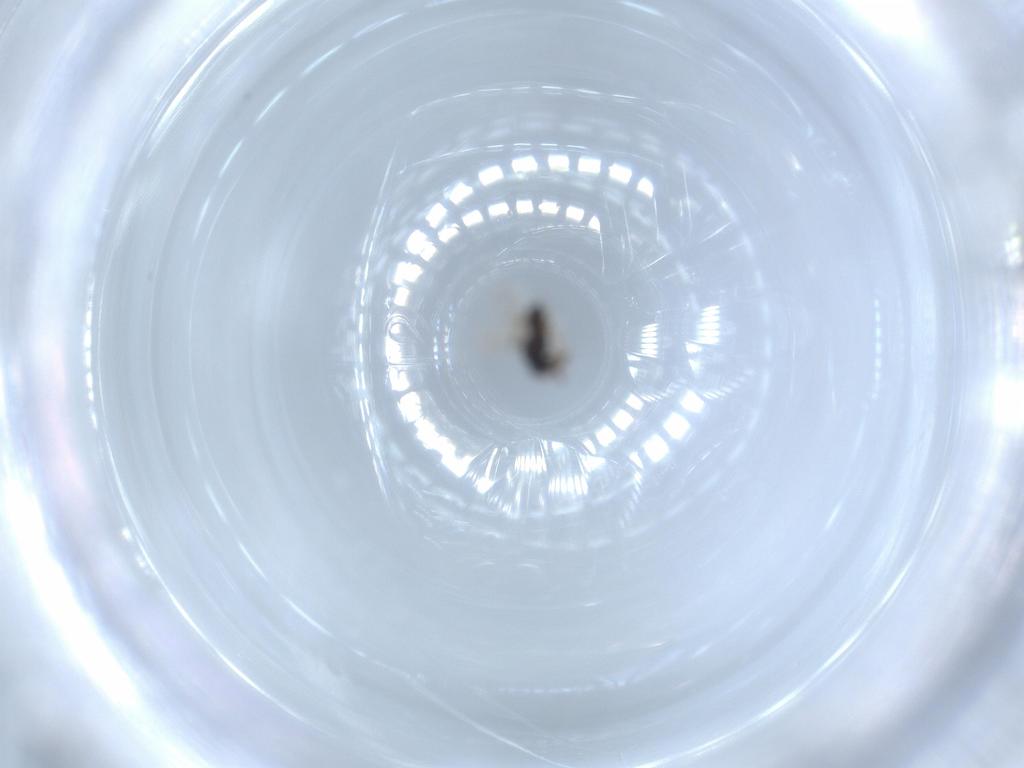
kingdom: Animalia
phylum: Arthropoda
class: Insecta
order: Hymenoptera
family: Scelionidae
